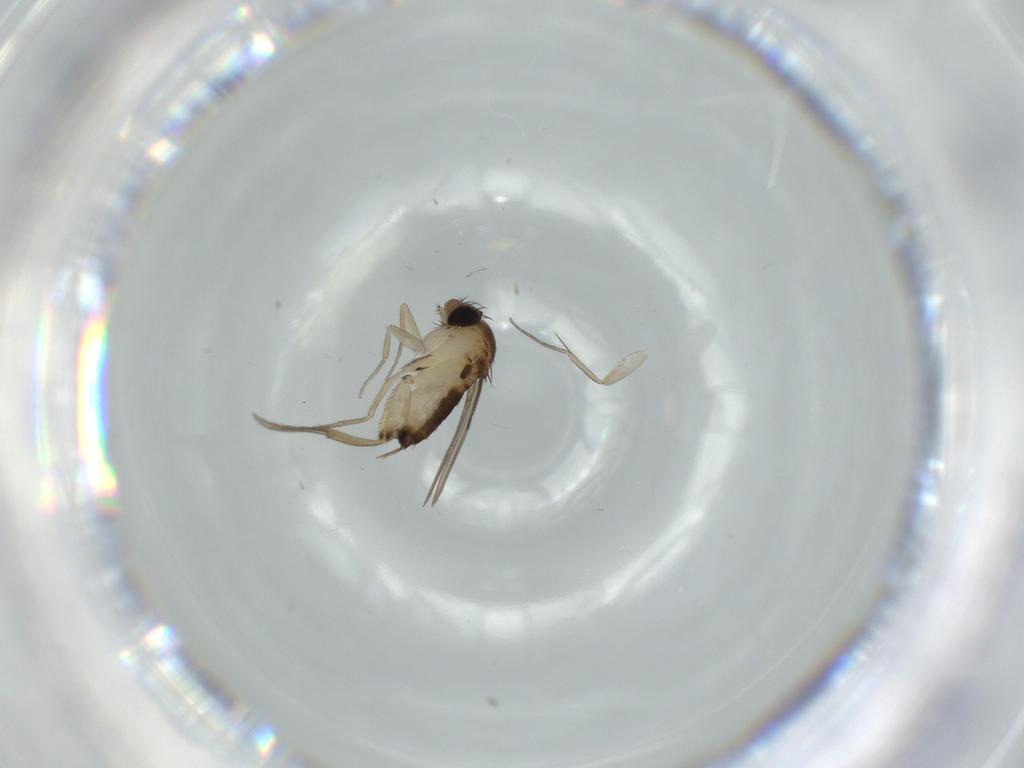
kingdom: Animalia
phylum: Arthropoda
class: Insecta
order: Diptera
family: Phoridae
